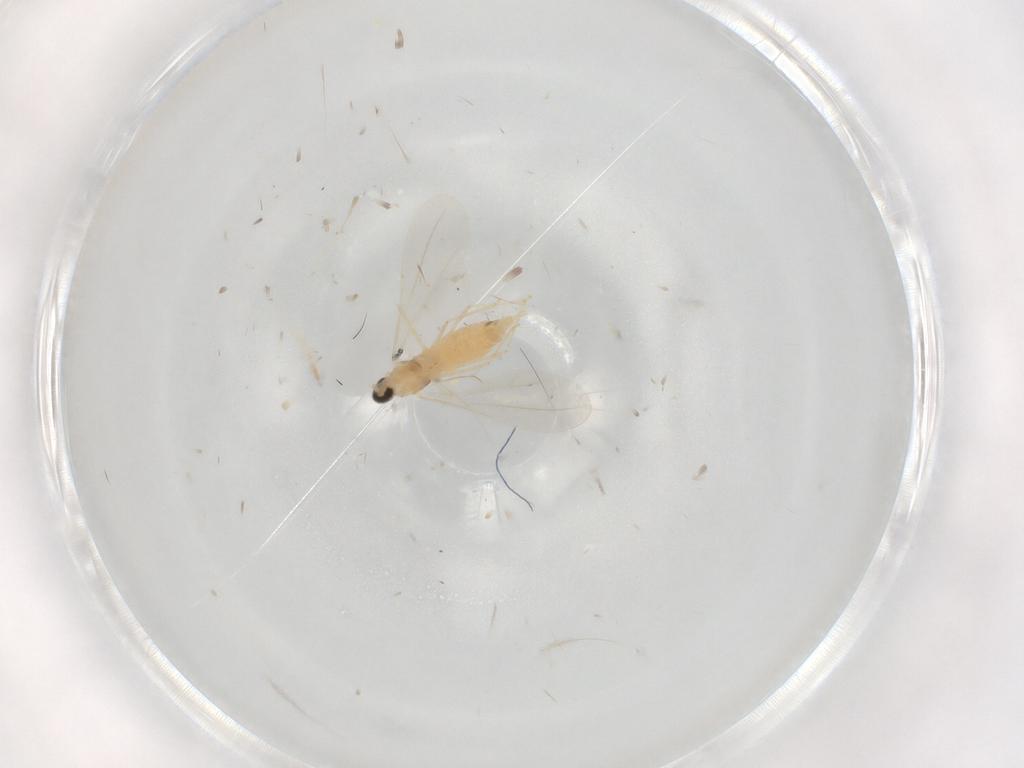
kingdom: Animalia
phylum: Arthropoda
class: Insecta
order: Diptera
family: Cecidomyiidae
